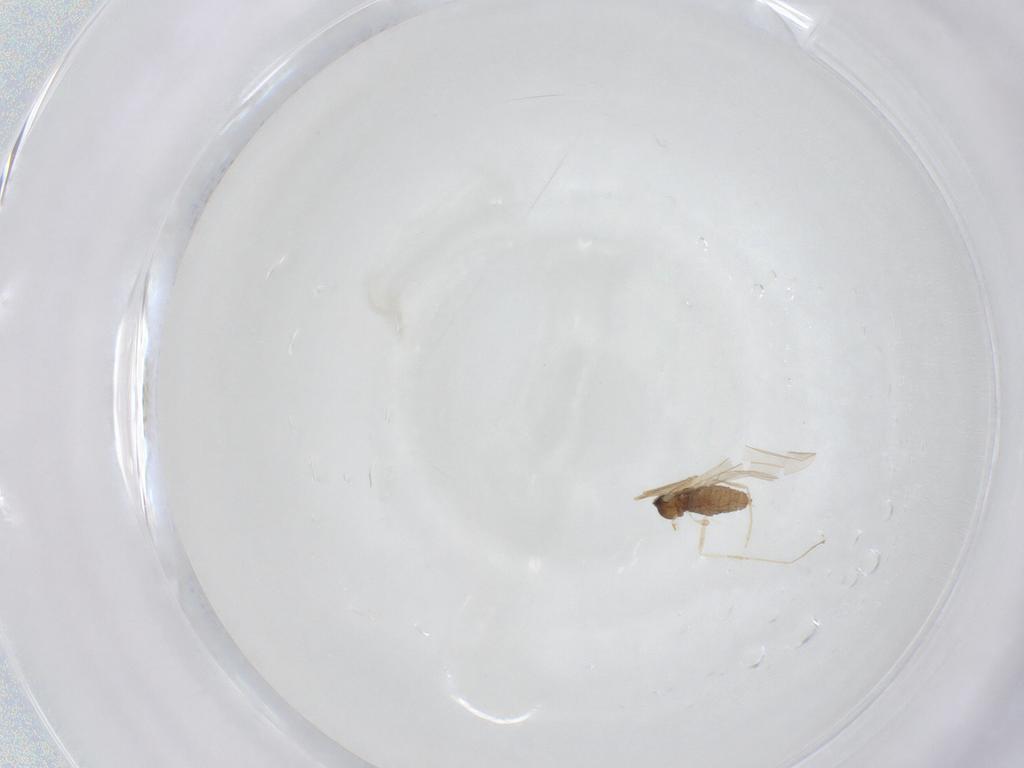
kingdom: Animalia
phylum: Arthropoda
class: Insecta
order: Diptera
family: Cecidomyiidae
